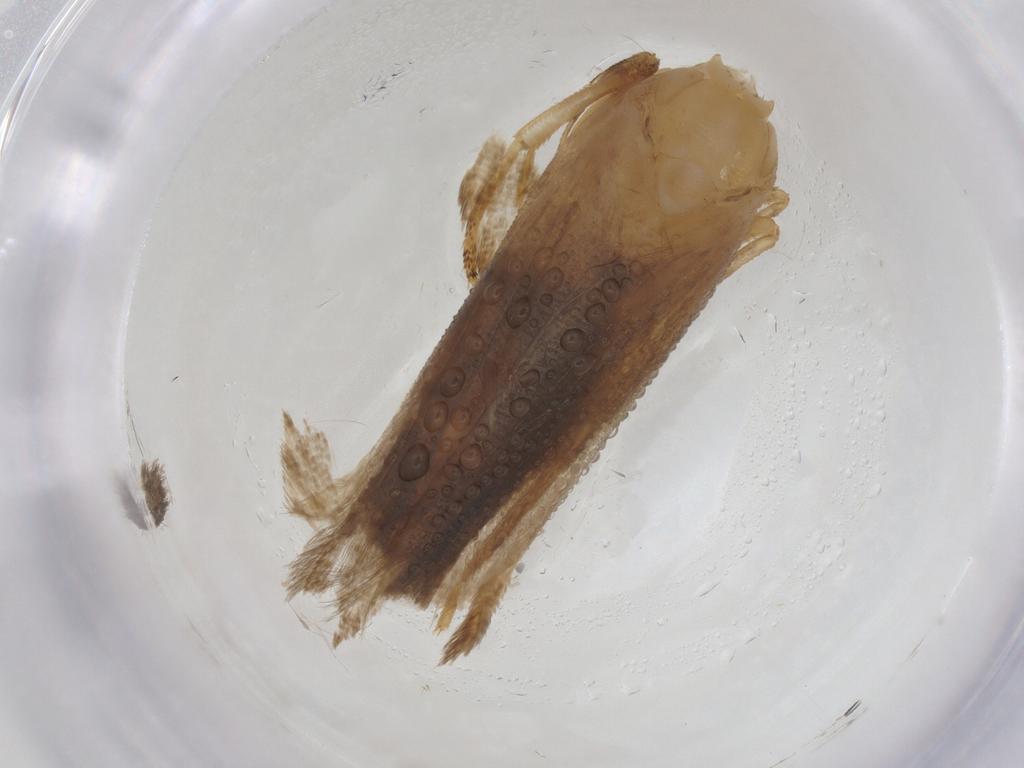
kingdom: Animalia
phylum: Arthropoda
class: Insecta
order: Lepidoptera
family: Gelechiidae
